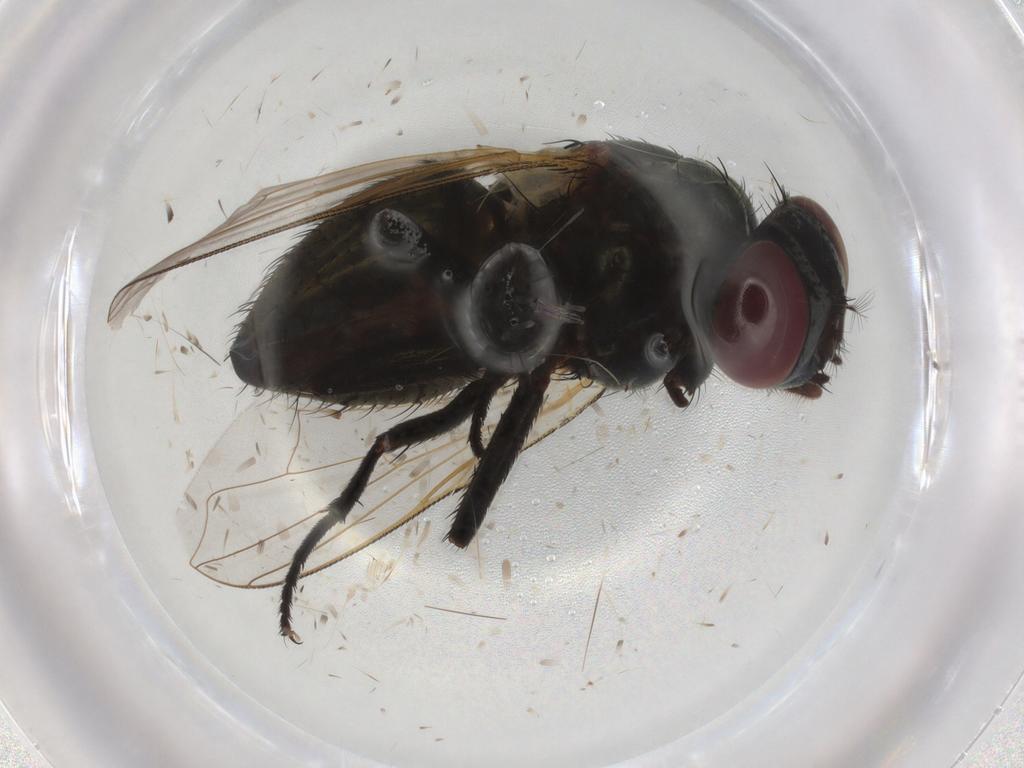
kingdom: Animalia
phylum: Arthropoda
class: Insecta
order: Diptera
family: Muscidae
